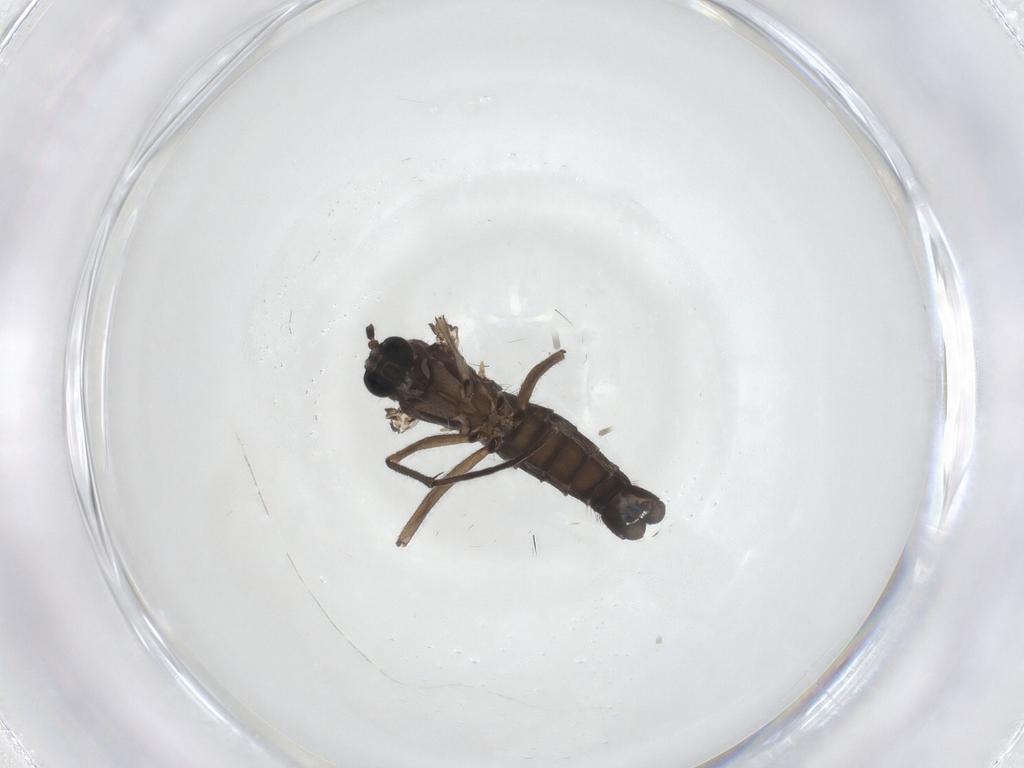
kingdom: Animalia
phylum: Arthropoda
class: Insecta
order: Diptera
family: Sciaridae
